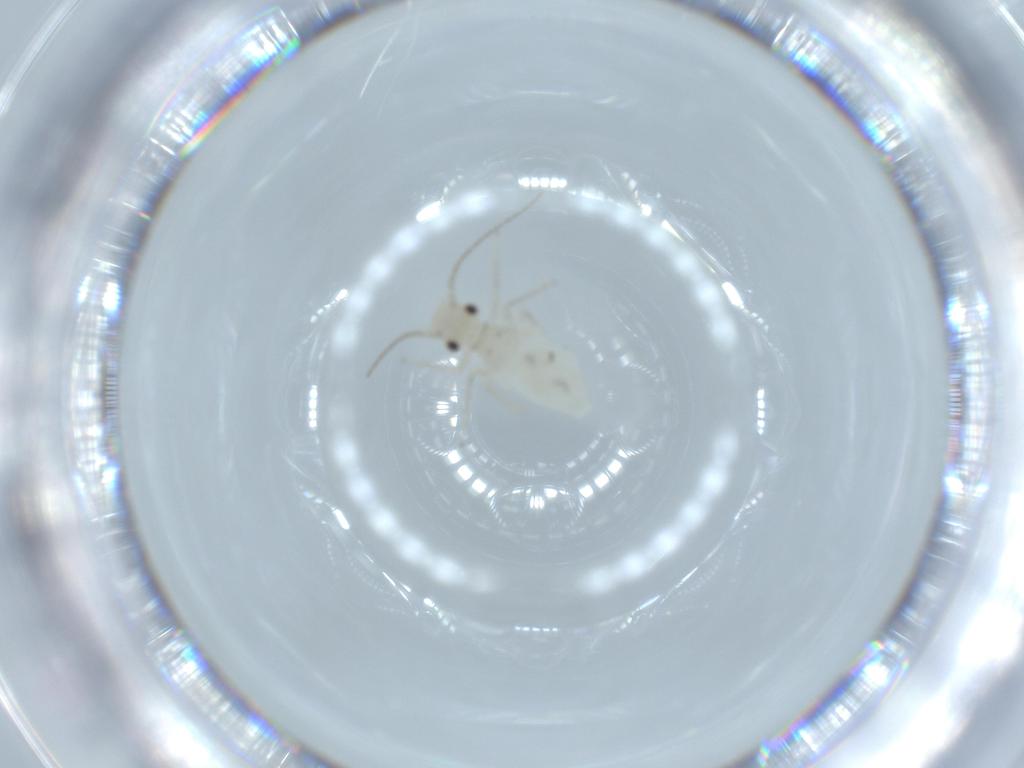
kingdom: Animalia
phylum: Arthropoda
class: Insecta
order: Psocodea
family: Caeciliusidae
